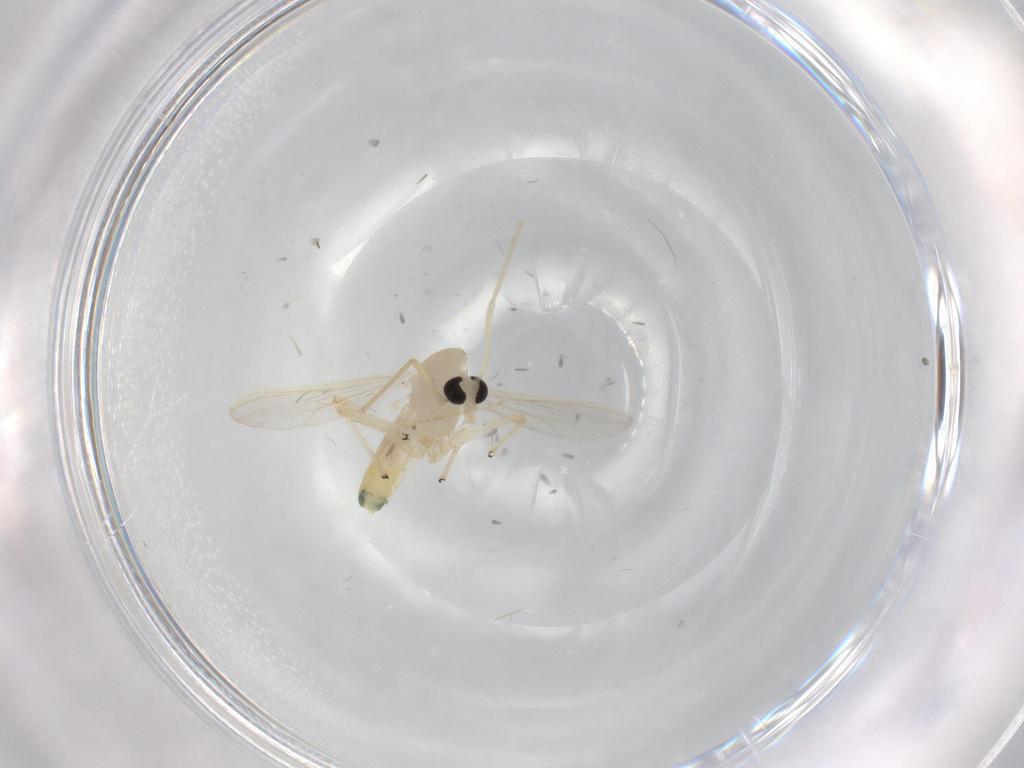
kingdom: Animalia
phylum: Arthropoda
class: Insecta
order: Diptera
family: Chironomidae
